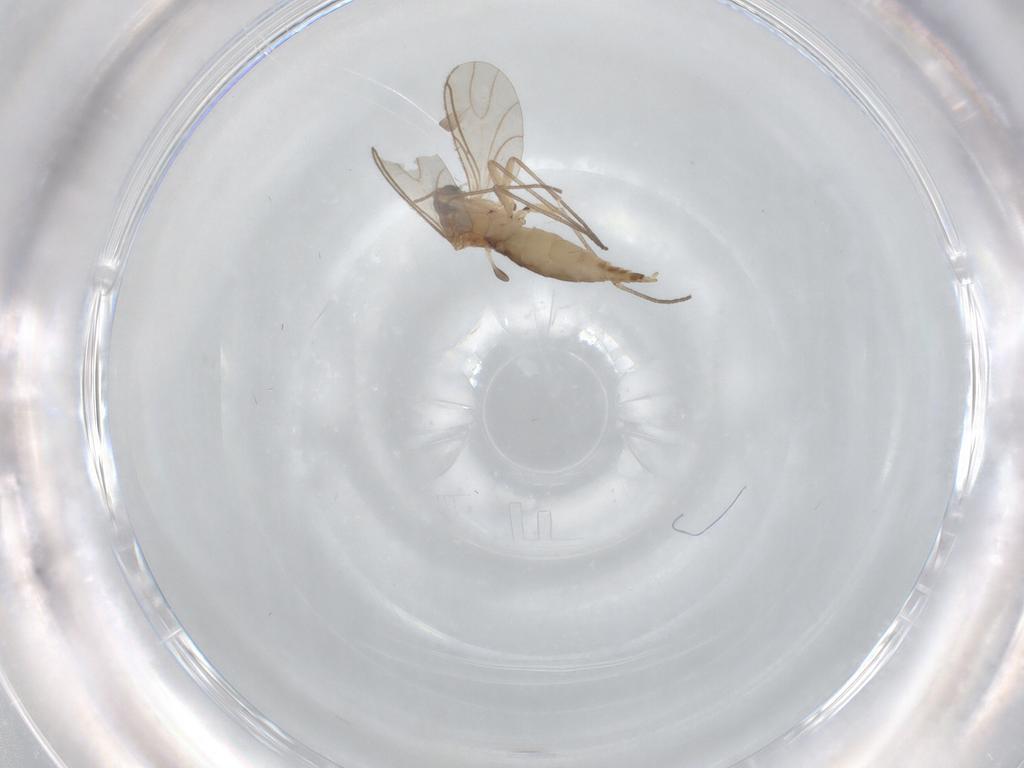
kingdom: Animalia
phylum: Arthropoda
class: Insecta
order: Diptera
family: Sciaridae
